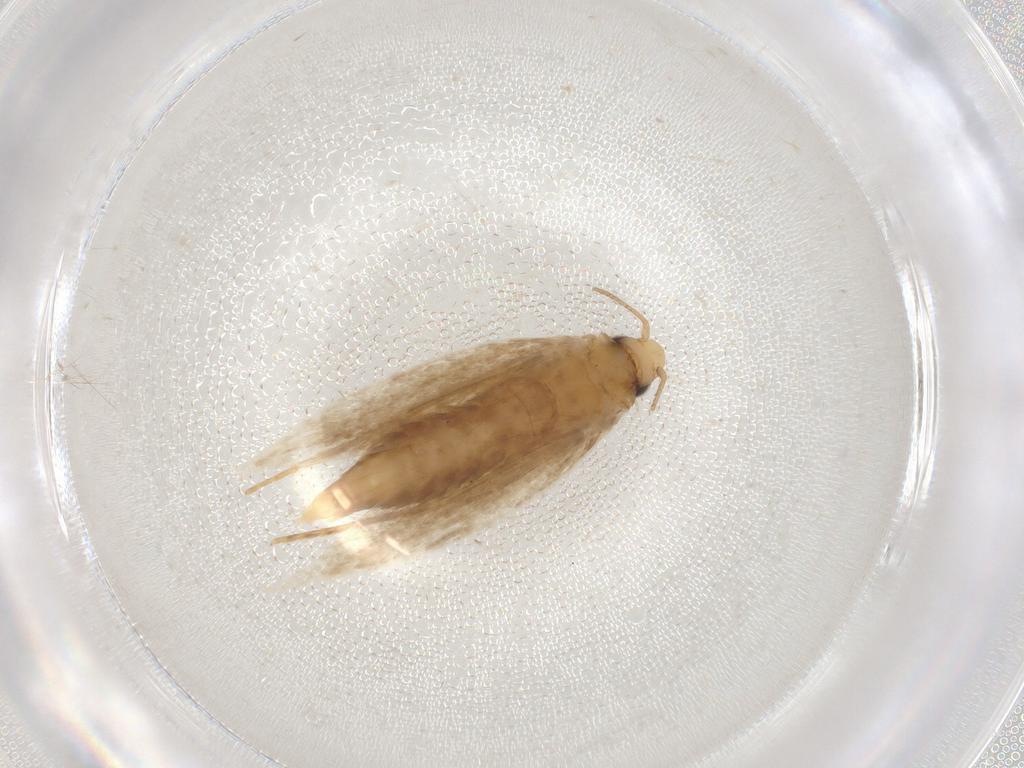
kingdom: Animalia
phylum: Arthropoda
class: Insecta
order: Lepidoptera
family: Tineidae
